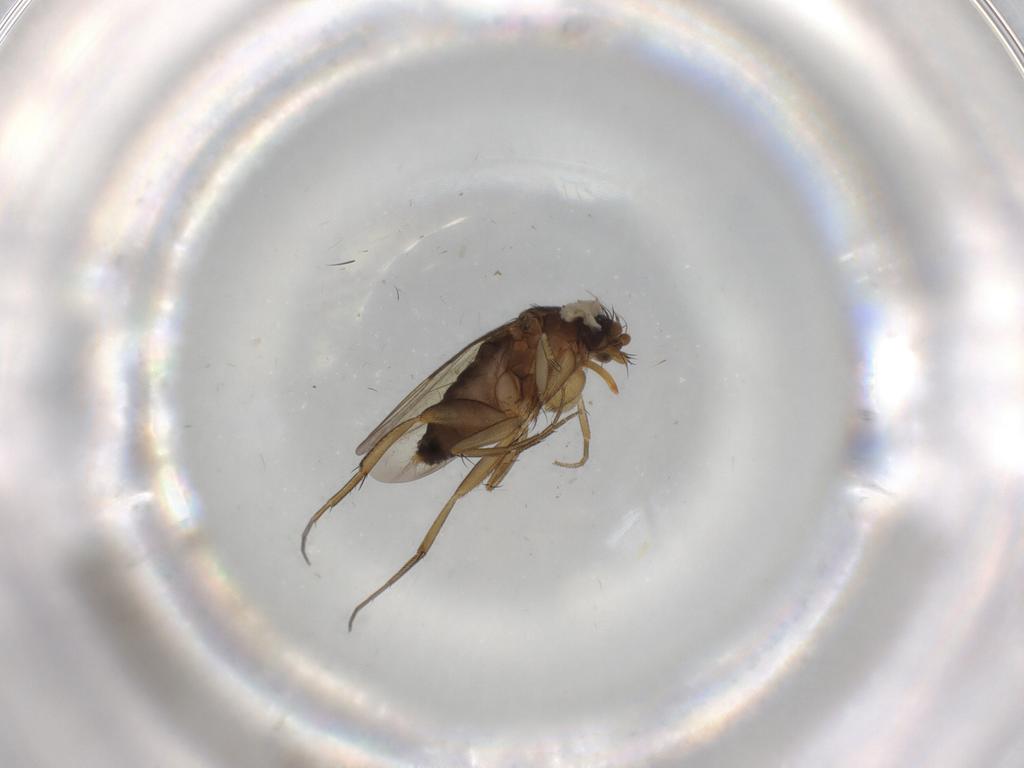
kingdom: Animalia
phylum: Arthropoda
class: Insecta
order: Diptera
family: Phoridae
